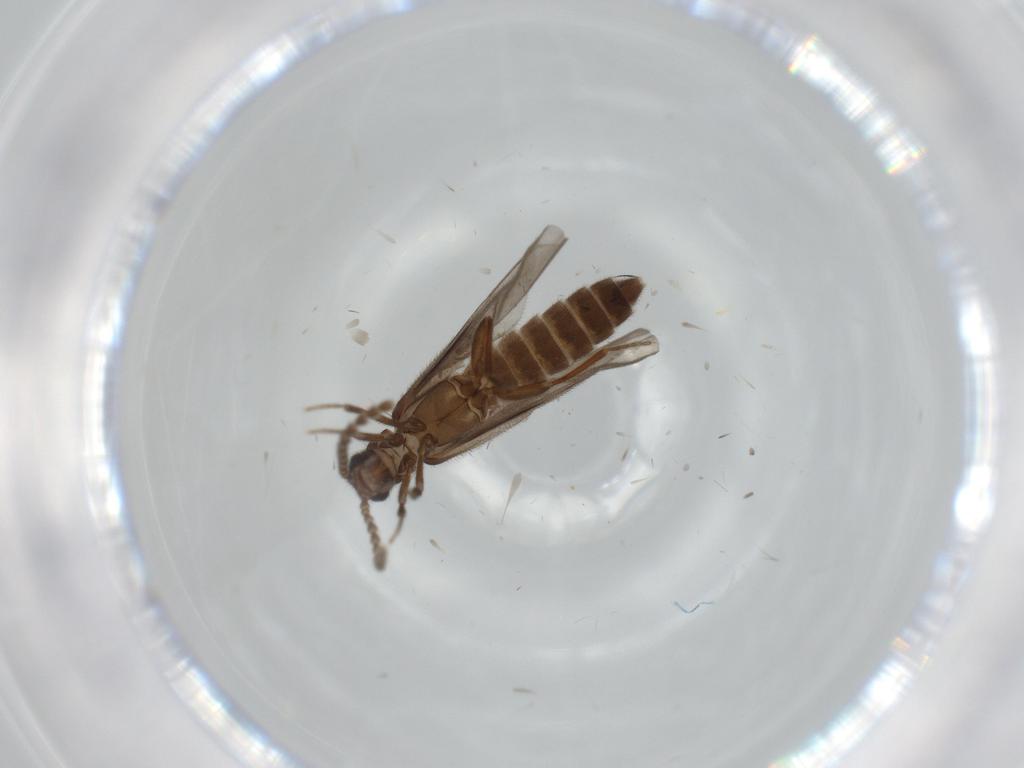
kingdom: Animalia
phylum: Arthropoda
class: Insecta
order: Coleoptera
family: Omethidae
